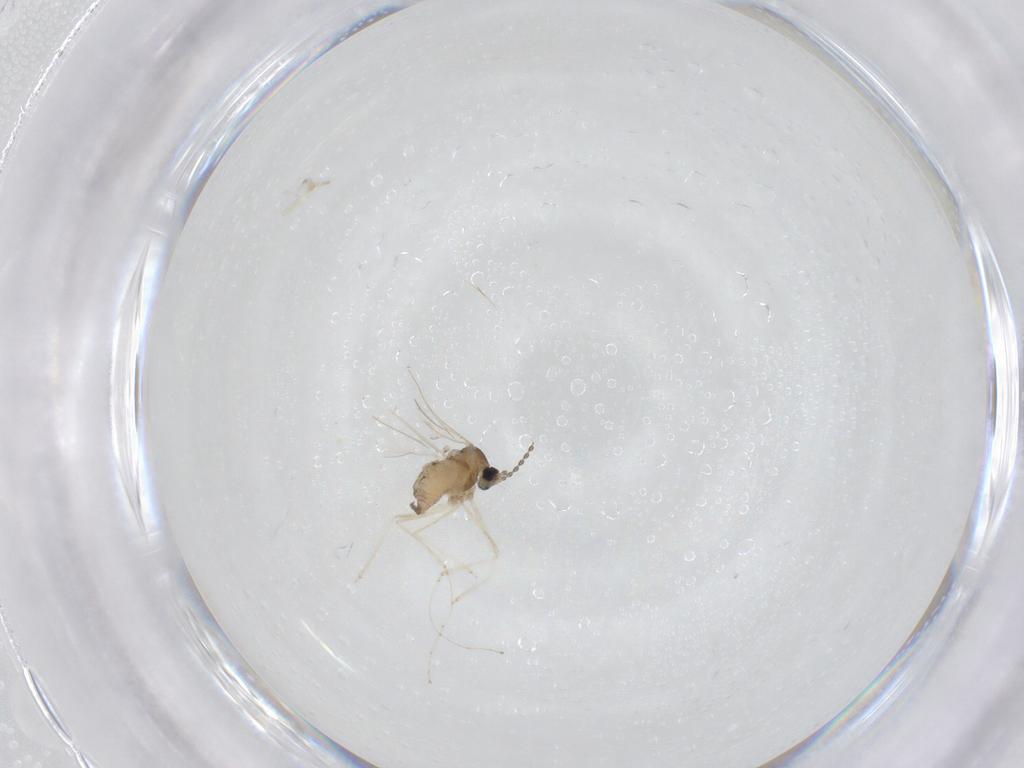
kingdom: Animalia
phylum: Arthropoda
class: Insecta
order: Diptera
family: Cecidomyiidae
